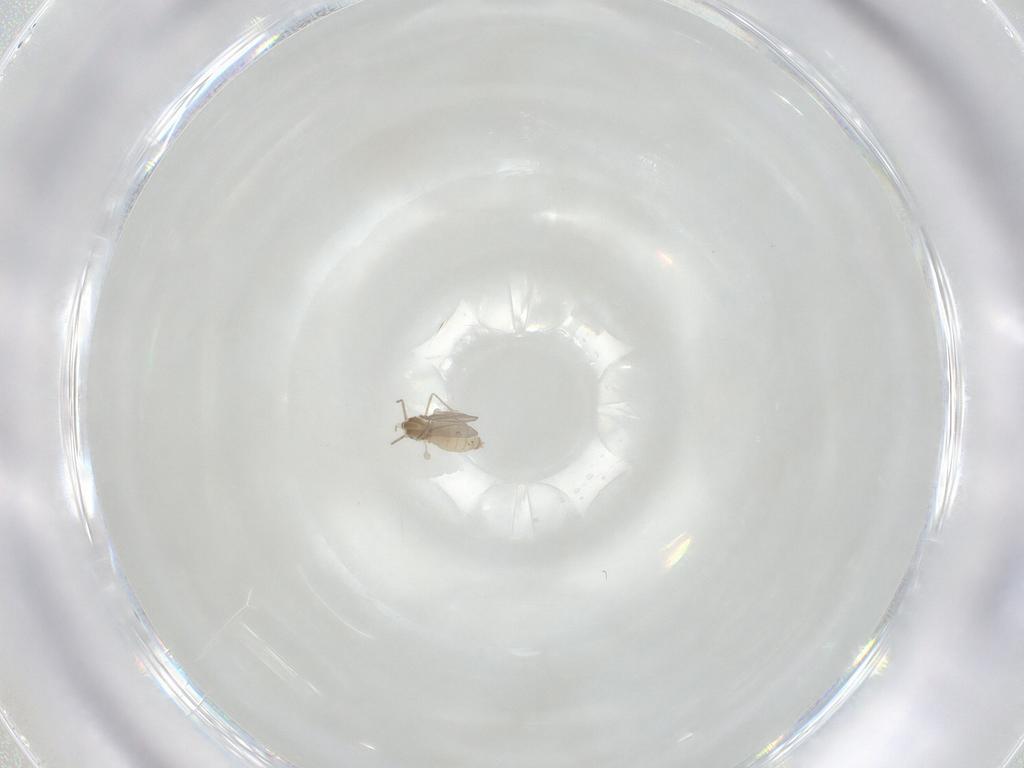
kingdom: Animalia
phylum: Arthropoda
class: Insecta
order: Diptera
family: Cecidomyiidae
